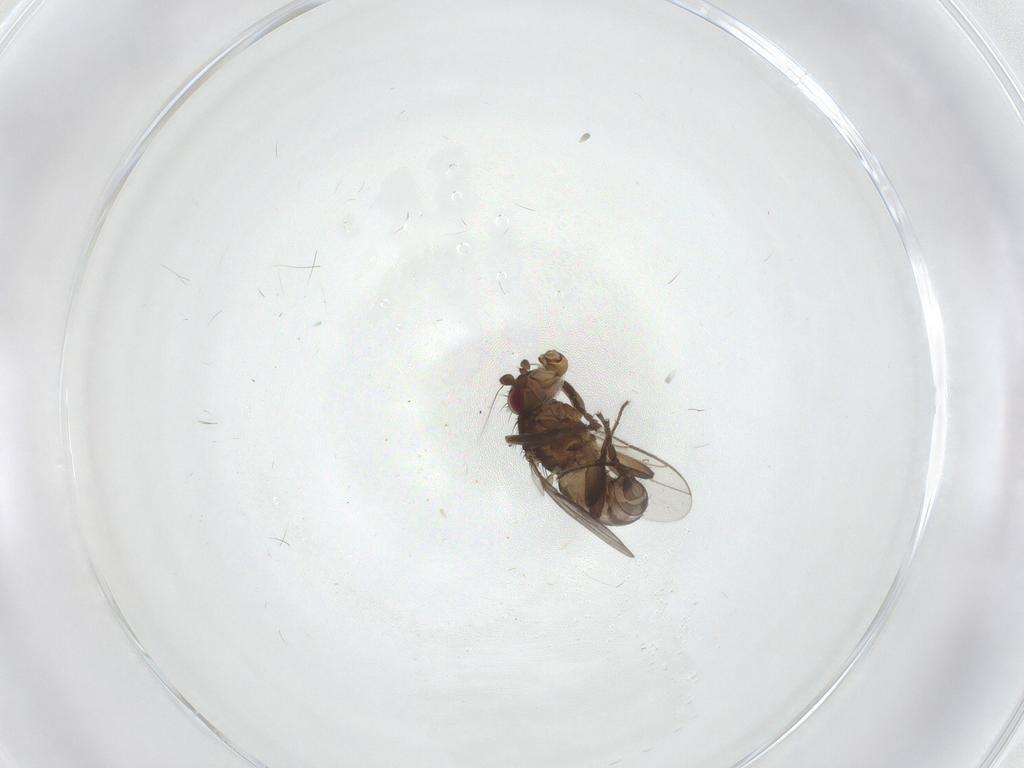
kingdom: Animalia
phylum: Arthropoda
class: Insecta
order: Diptera
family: Sphaeroceridae
